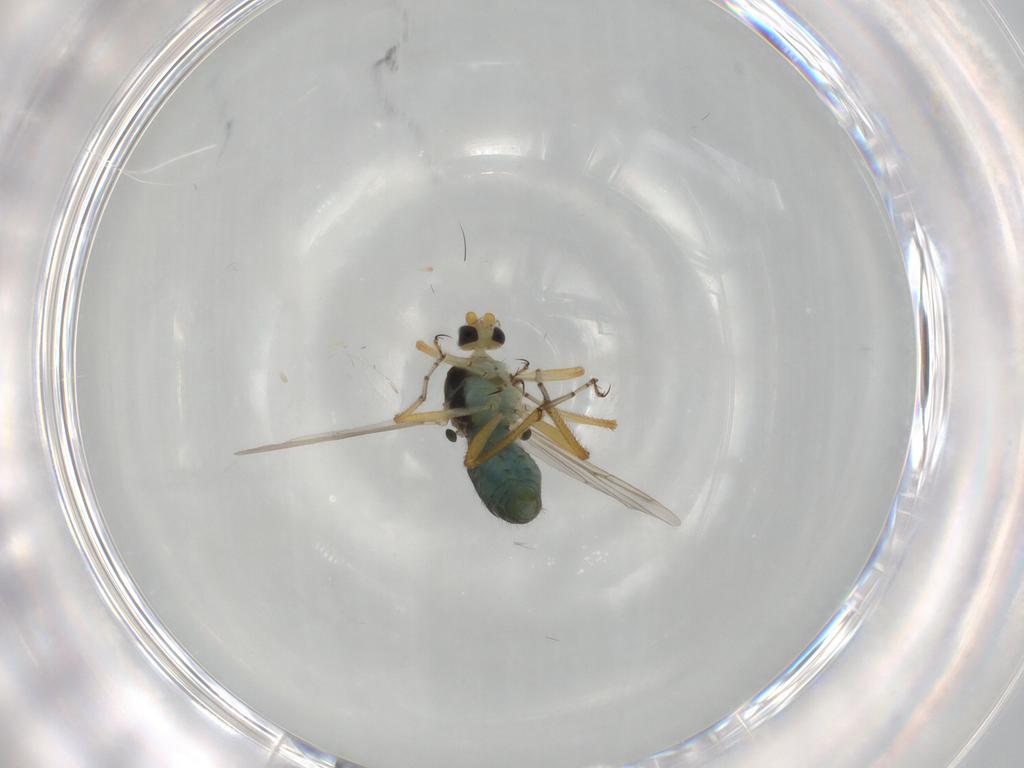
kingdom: Animalia
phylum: Arthropoda
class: Insecta
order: Diptera
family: Ceratopogonidae
